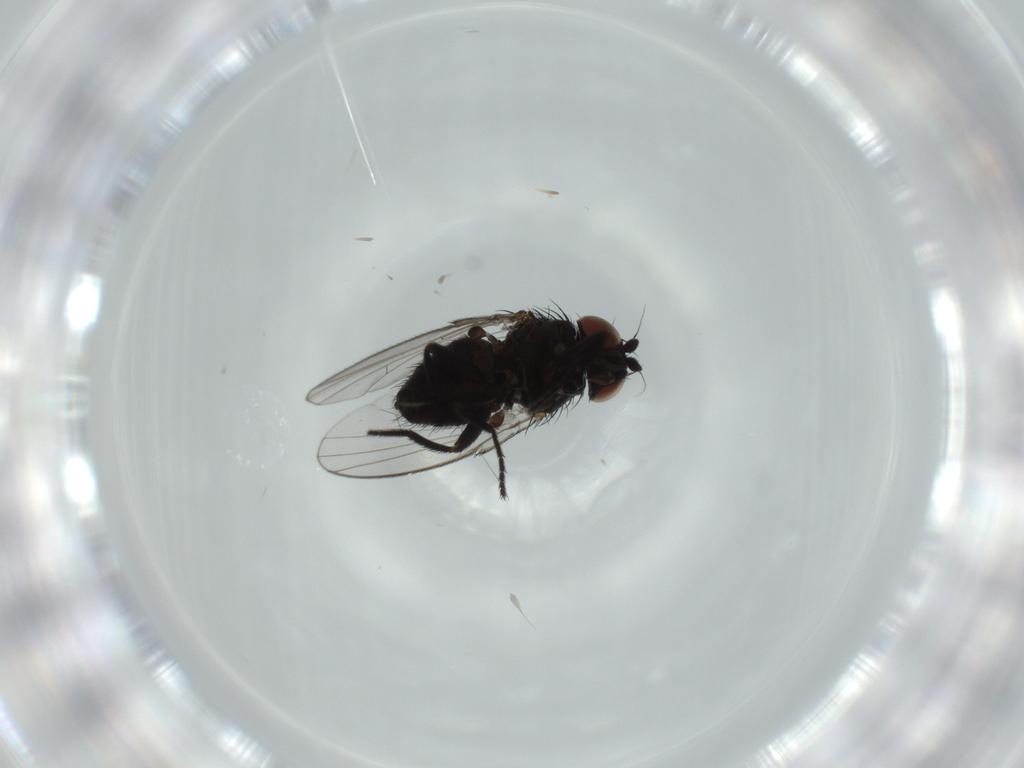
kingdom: Animalia
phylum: Arthropoda
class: Insecta
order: Diptera
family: Milichiidae
